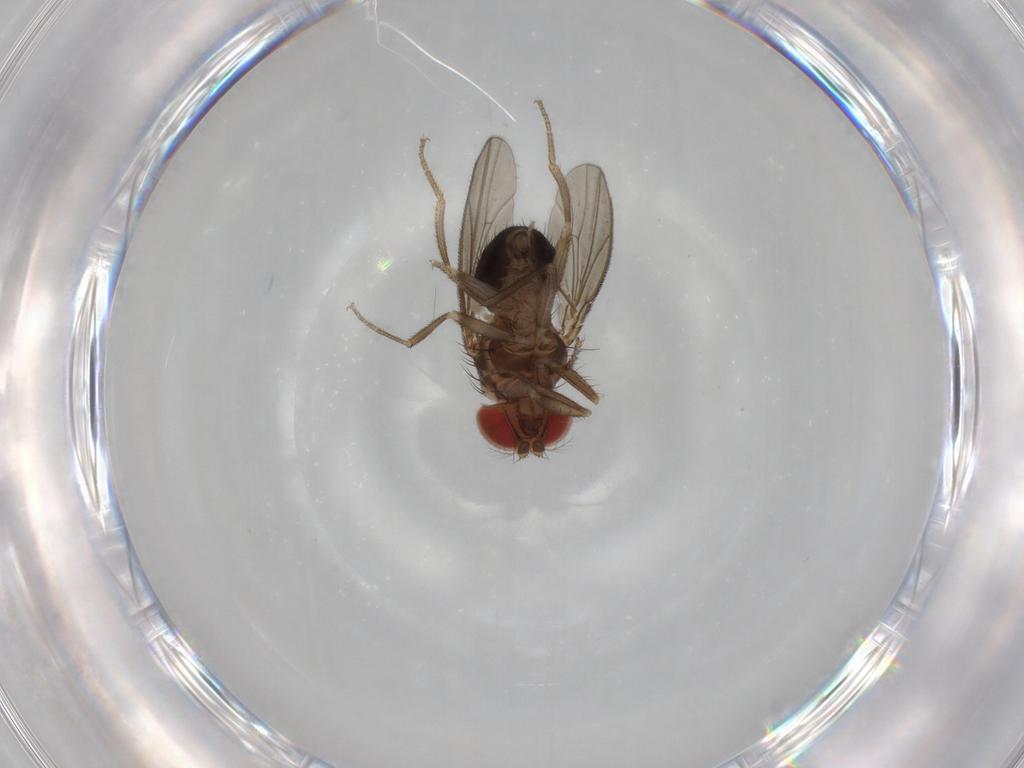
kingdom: Animalia
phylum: Arthropoda
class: Insecta
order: Diptera
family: Drosophilidae
